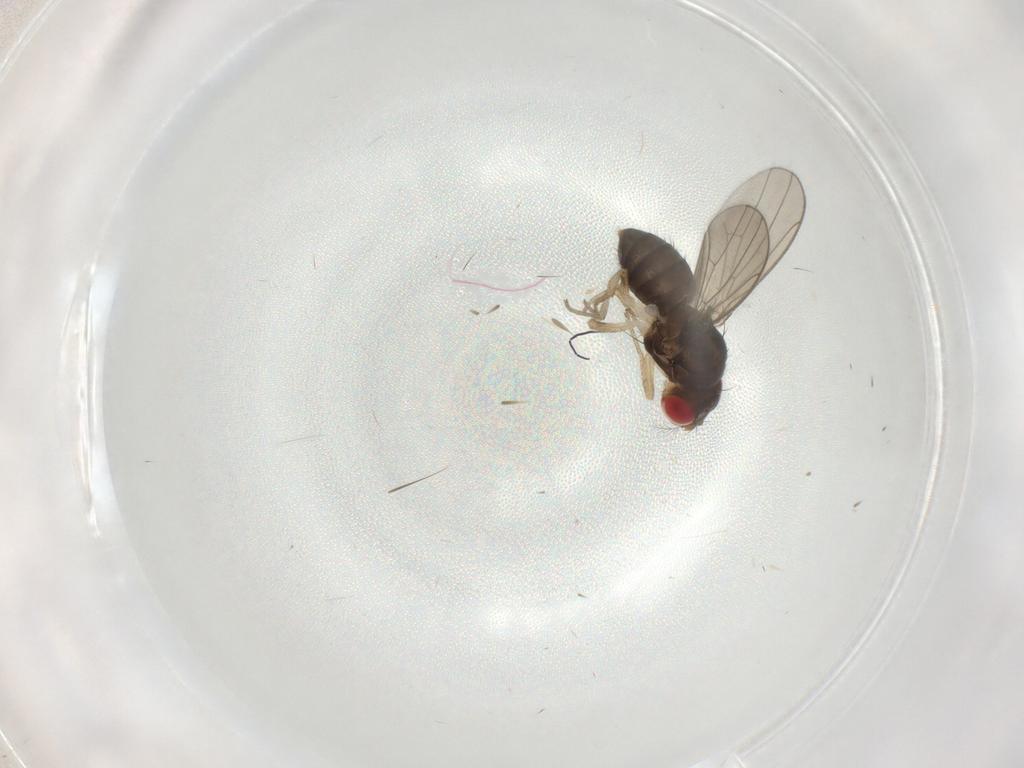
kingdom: Animalia
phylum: Arthropoda
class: Insecta
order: Diptera
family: Drosophilidae
